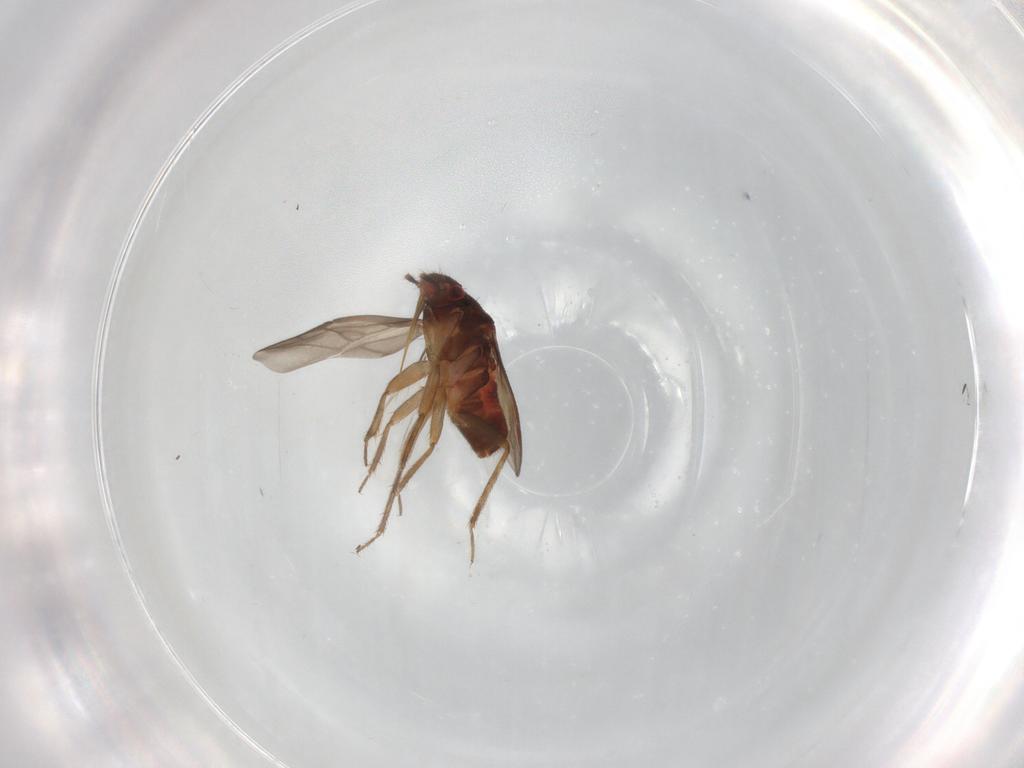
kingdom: Animalia
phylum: Arthropoda
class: Insecta
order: Hemiptera
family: Ceratocombidae
